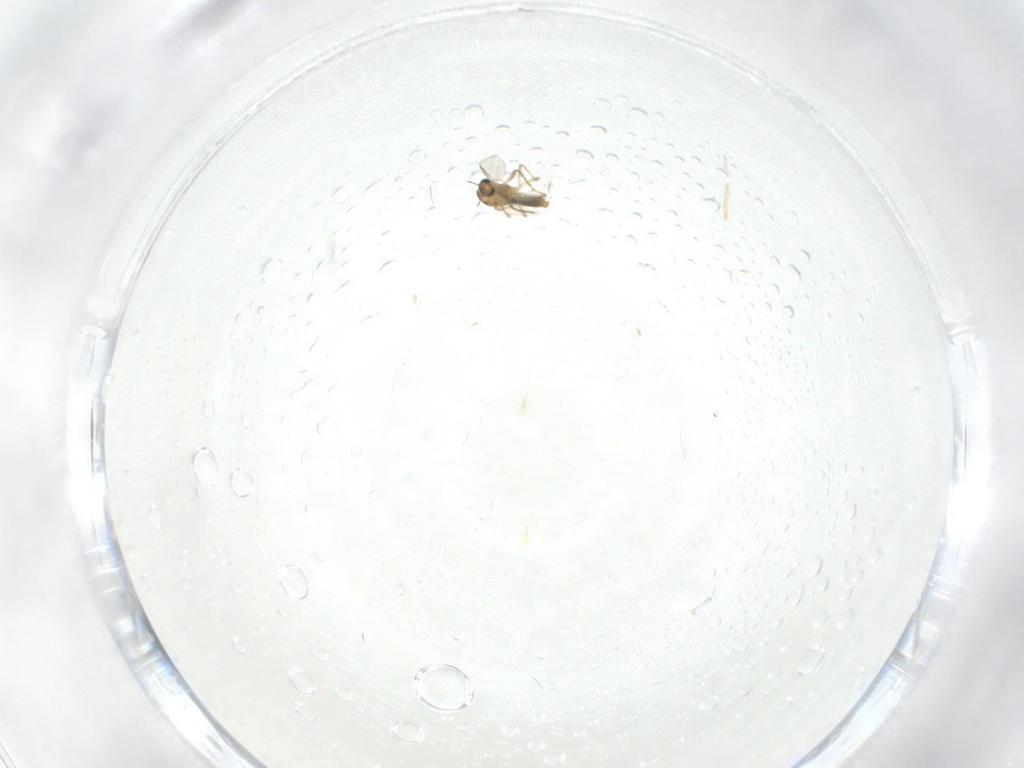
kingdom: Animalia
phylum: Arthropoda
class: Insecta
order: Diptera
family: Chironomidae
